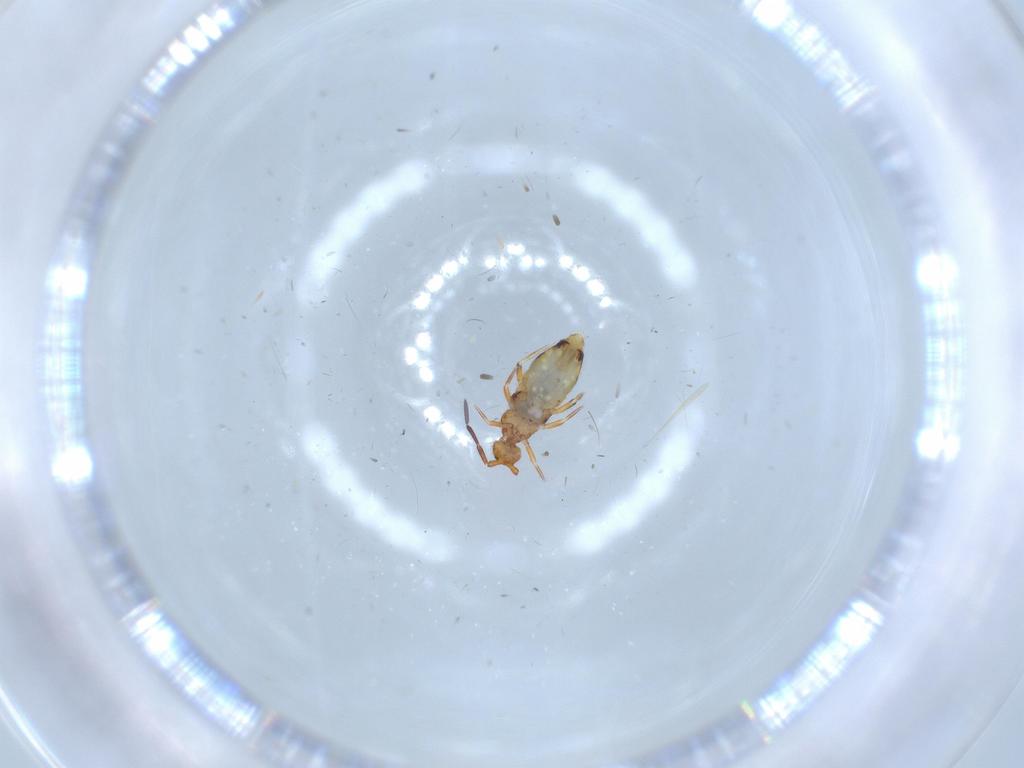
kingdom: Animalia
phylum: Arthropoda
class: Collembola
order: Entomobryomorpha
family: Entomobryidae
